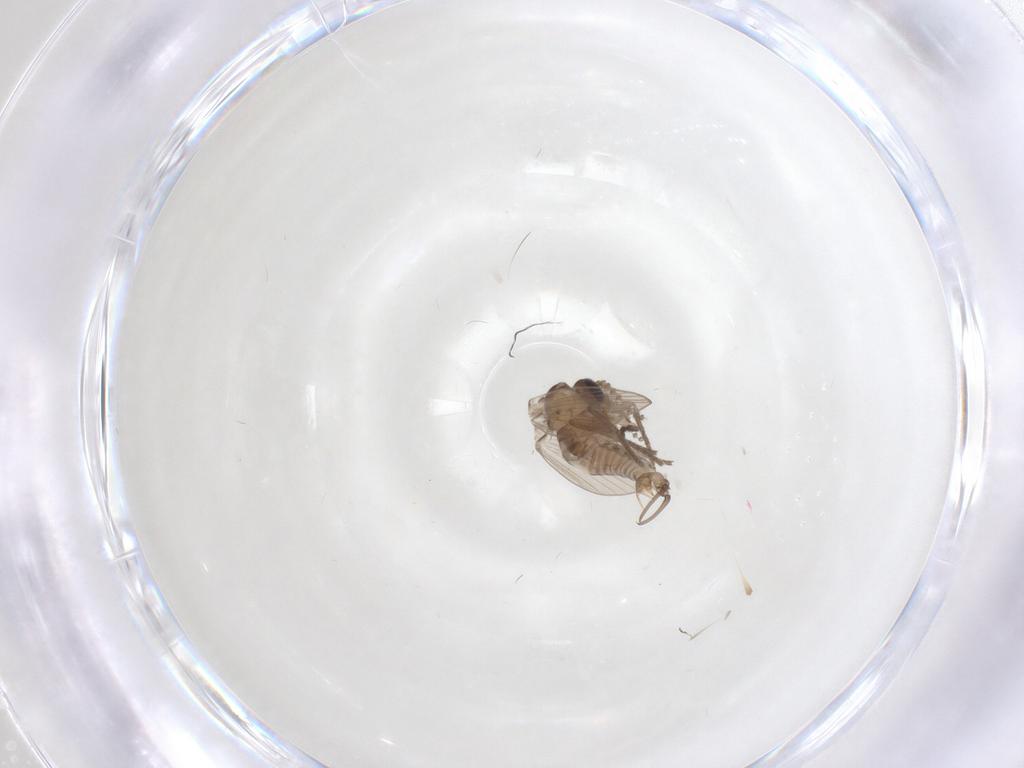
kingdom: Animalia
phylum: Arthropoda
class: Insecta
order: Diptera
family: Psychodidae
